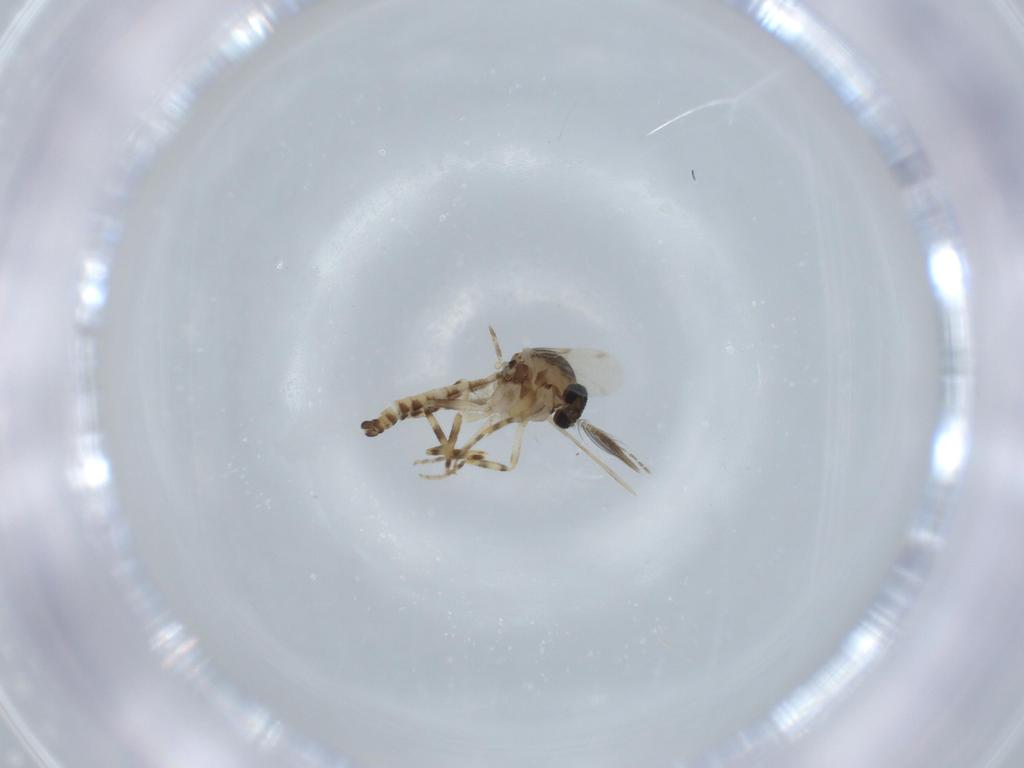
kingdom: Animalia
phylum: Arthropoda
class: Insecta
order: Diptera
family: Ceratopogonidae
